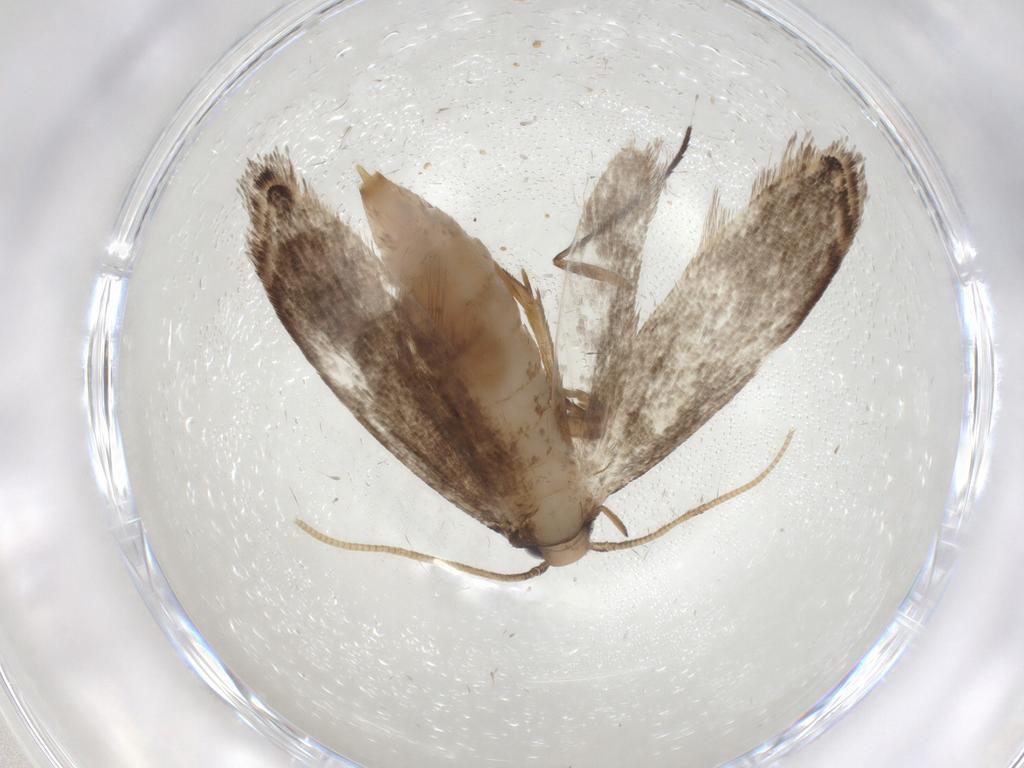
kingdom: Animalia
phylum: Arthropoda
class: Insecta
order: Lepidoptera
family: Tineidae
